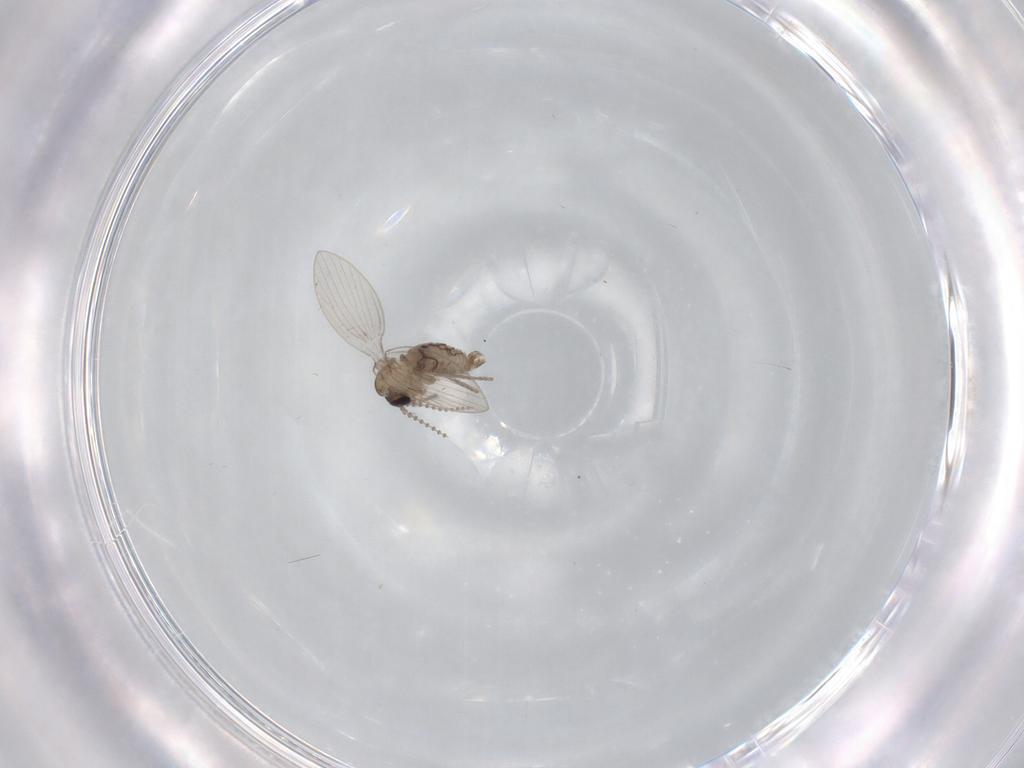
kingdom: Animalia
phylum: Arthropoda
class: Insecta
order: Diptera
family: Psychodidae
